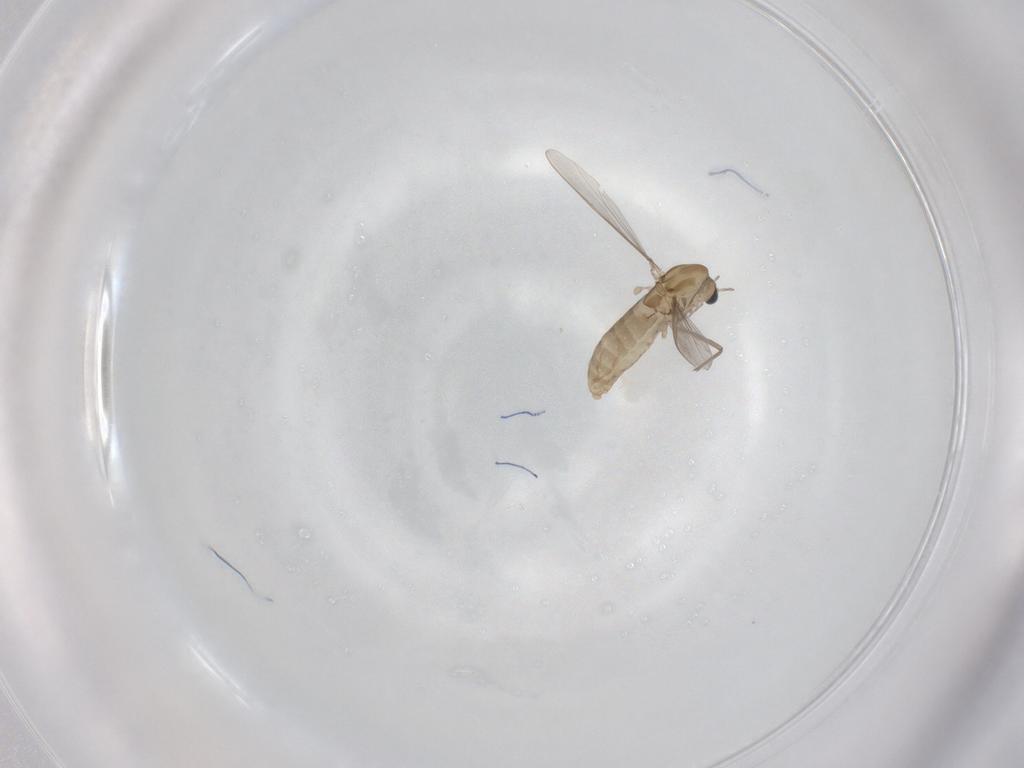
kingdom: Animalia
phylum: Arthropoda
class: Insecta
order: Diptera
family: Chironomidae
